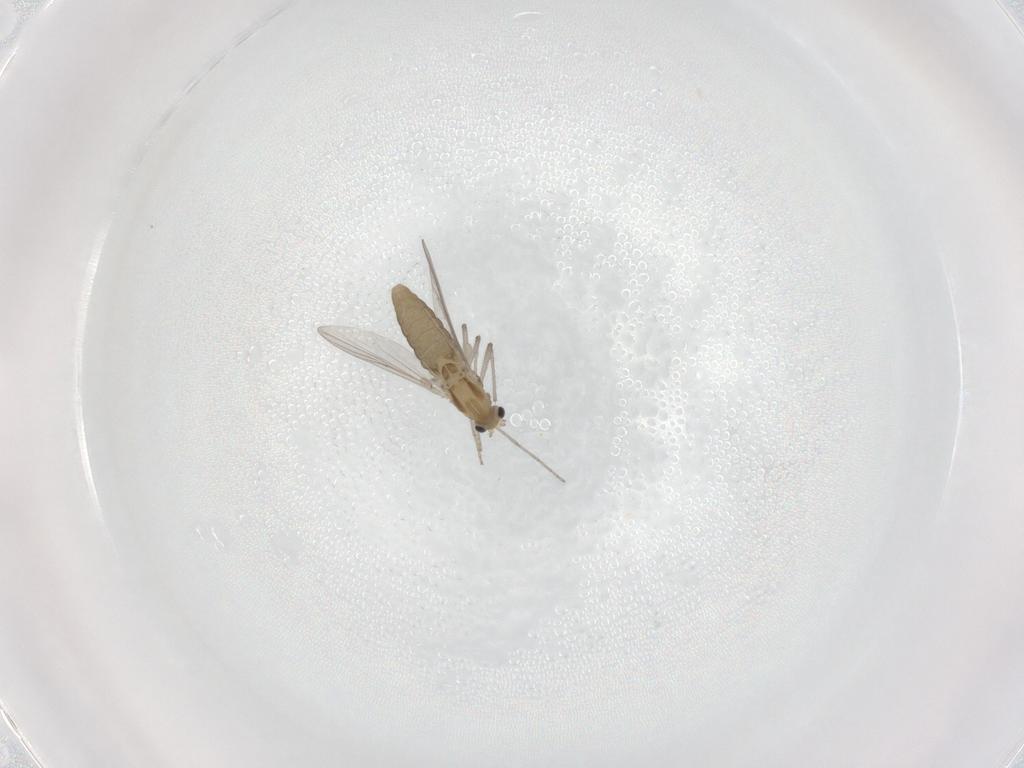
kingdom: Animalia
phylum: Arthropoda
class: Insecta
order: Diptera
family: Chironomidae
